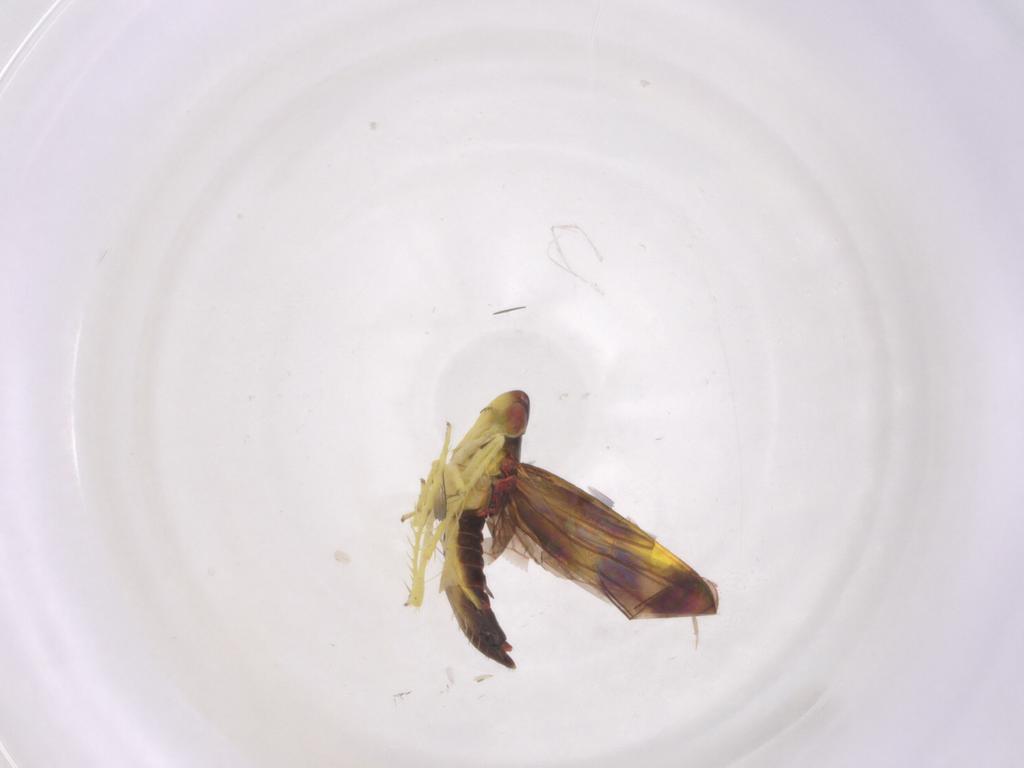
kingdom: Animalia
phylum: Arthropoda
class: Insecta
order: Hemiptera
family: Cicadellidae
